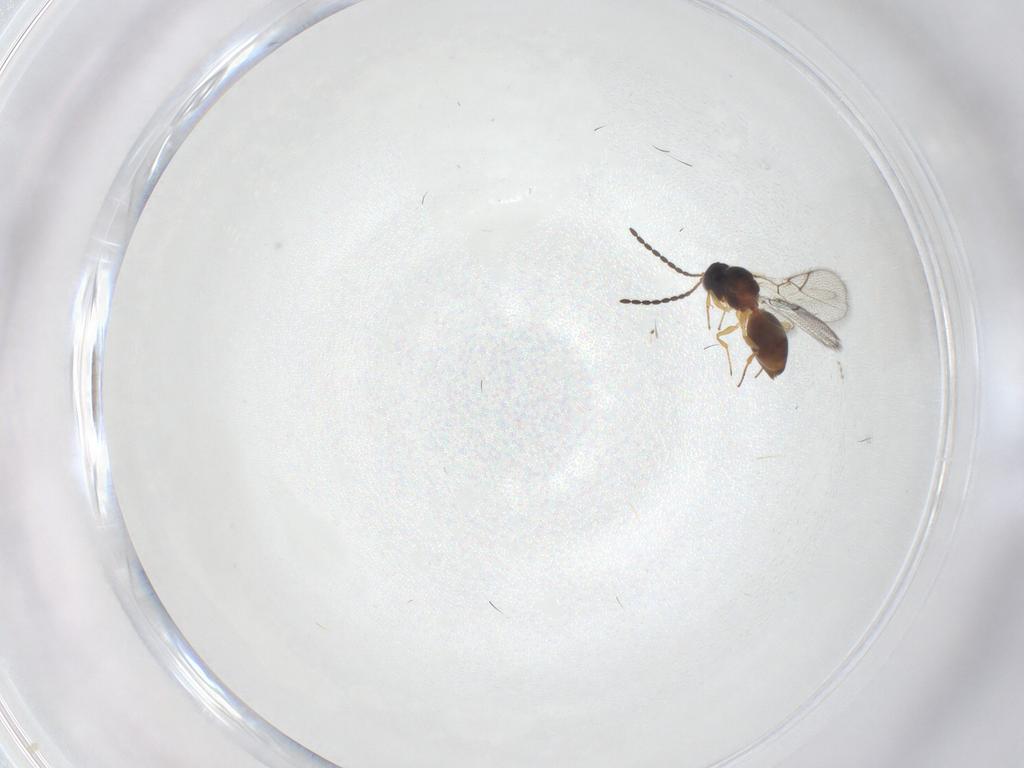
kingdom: Animalia
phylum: Arthropoda
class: Insecta
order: Hymenoptera
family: Figitidae
